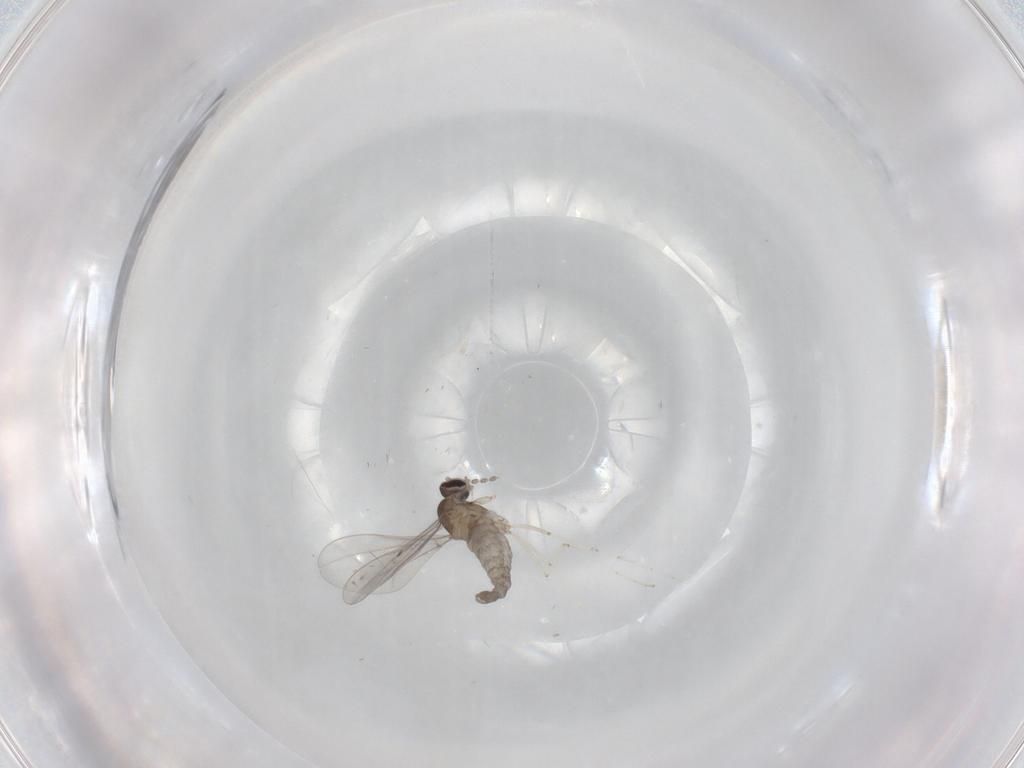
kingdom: Animalia
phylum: Arthropoda
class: Insecta
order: Diptera
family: Cecidomyiidae
